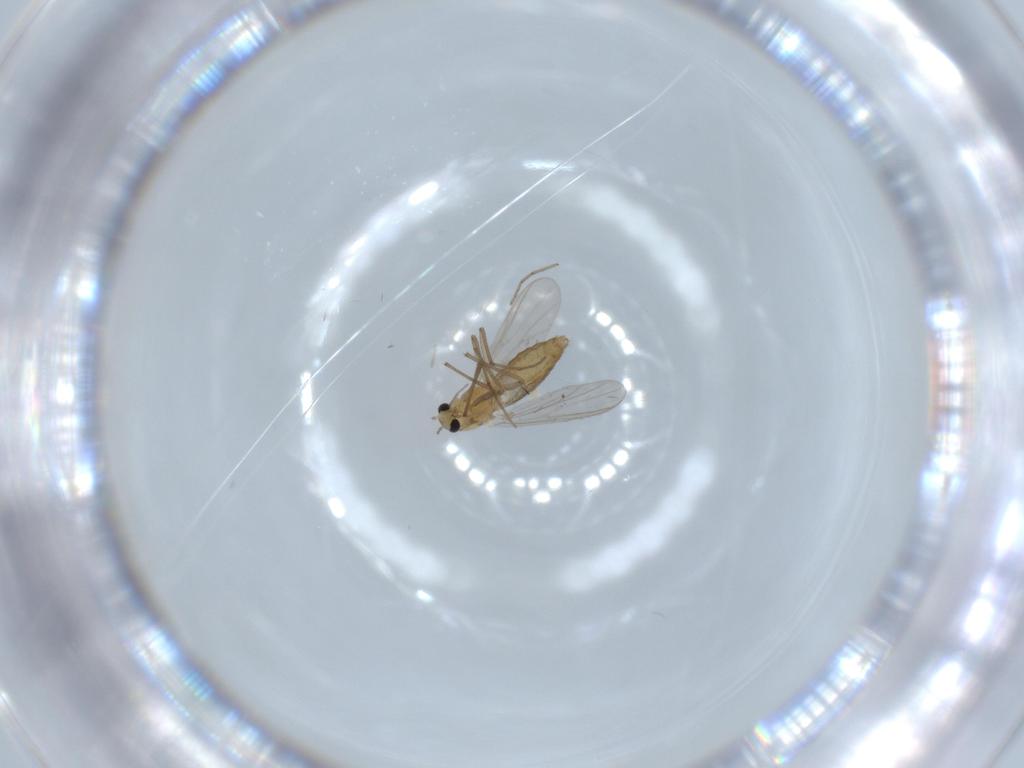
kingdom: Animalia
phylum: Arthropoda
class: Insecta
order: Diptera
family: Chironomidae
